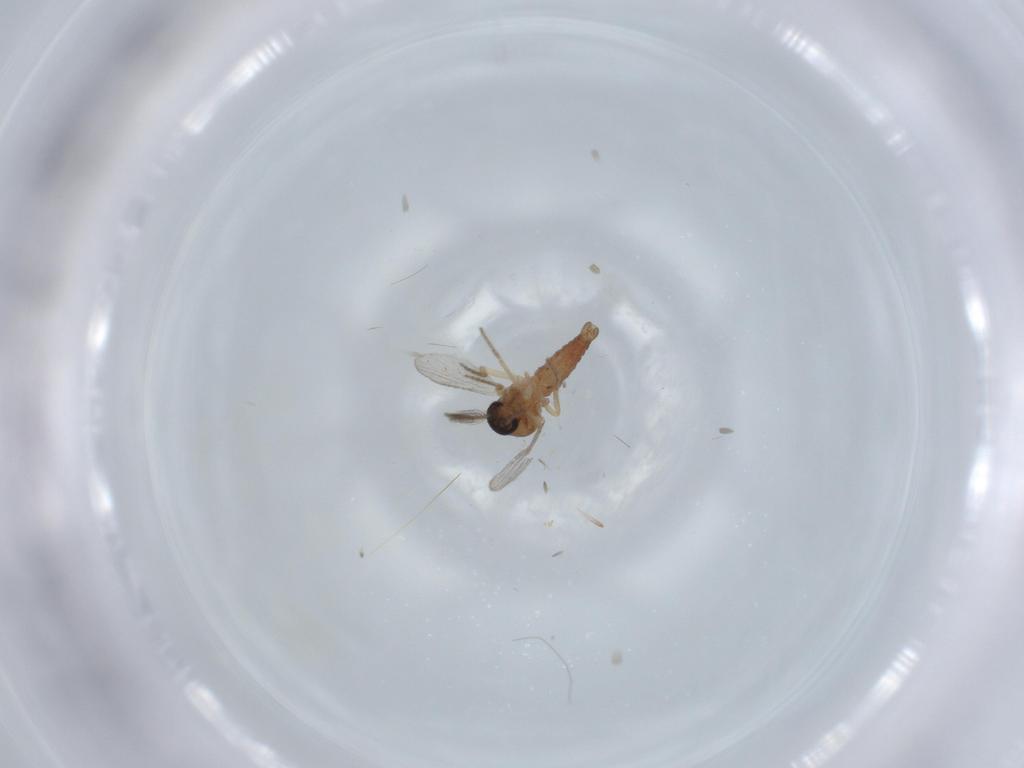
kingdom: Animalia
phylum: Arthropoda
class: Insecta
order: Diptera
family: Ceratopogonidae
